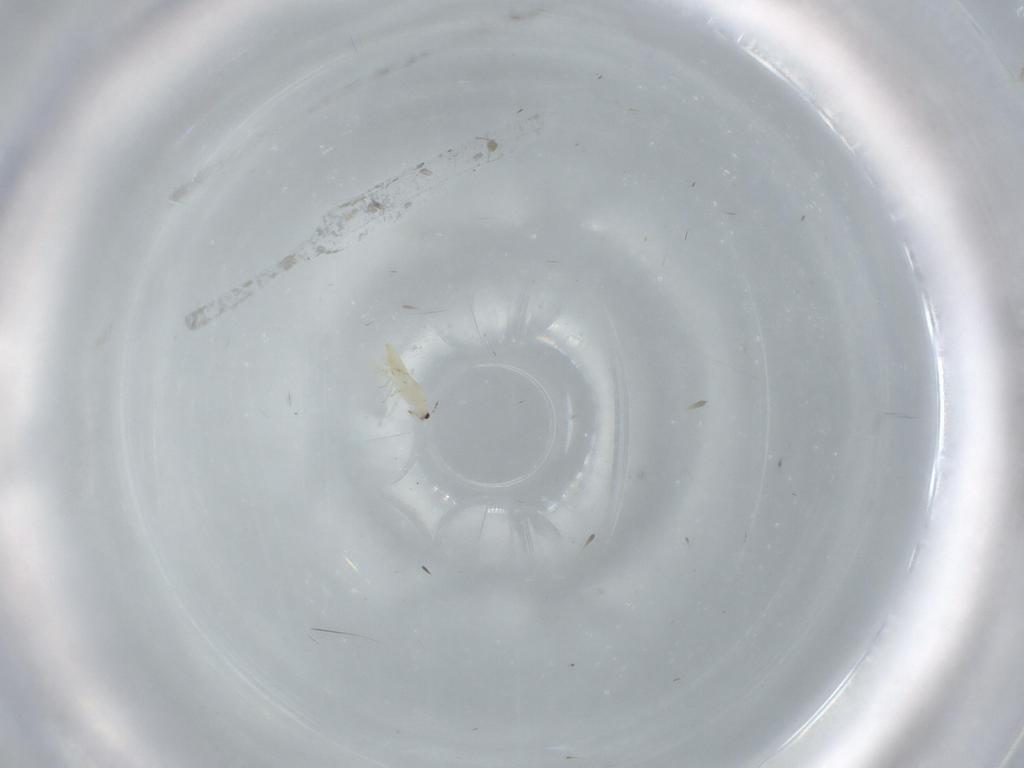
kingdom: Animalia
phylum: Arthropoda
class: Insecta
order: Thysanoptera
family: Thripidae
